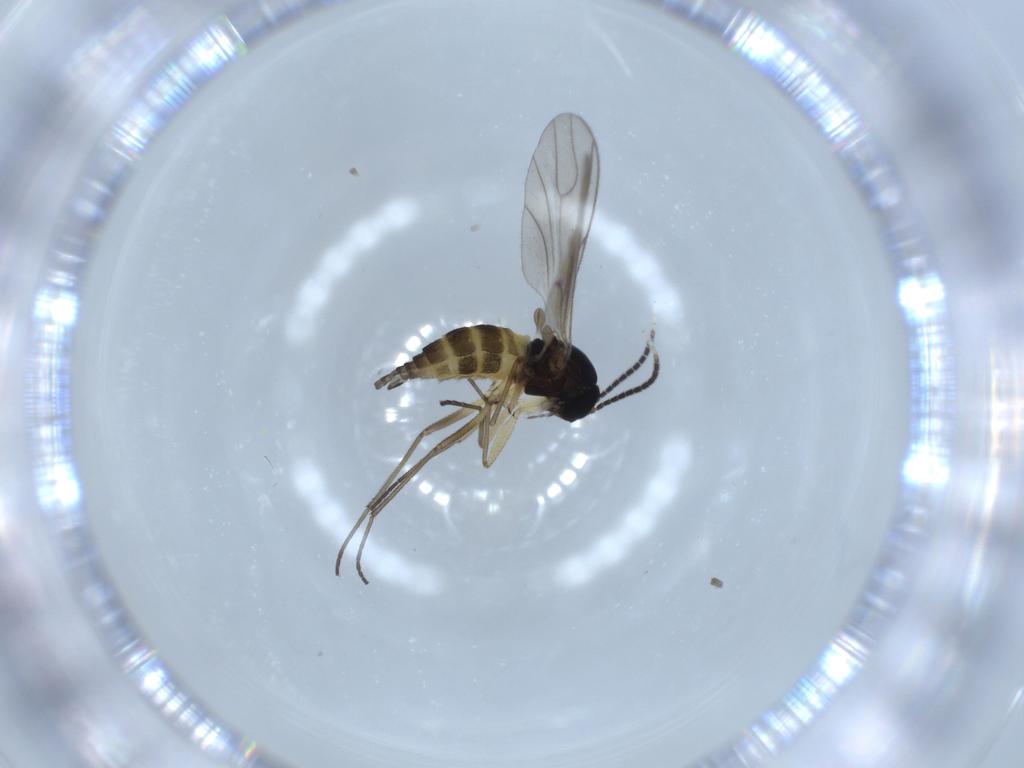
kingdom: Animalia
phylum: Arthropoda
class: Insecta
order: Diptera
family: Sciaridae
